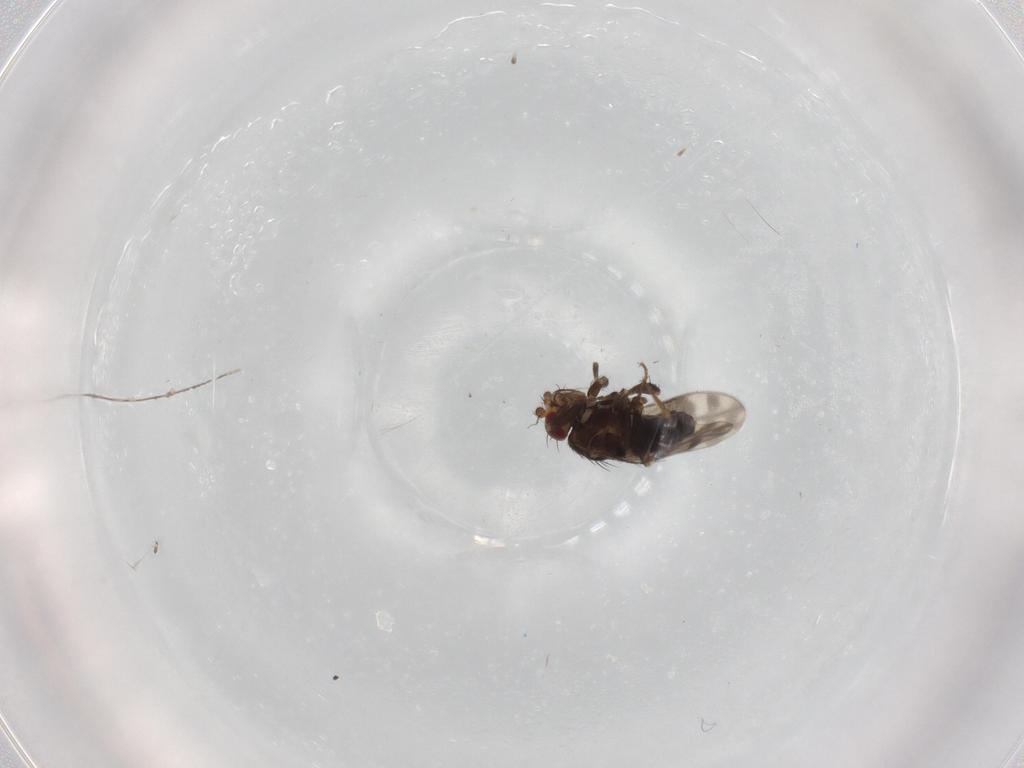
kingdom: Animalia
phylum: Arthropoda
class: Insecta
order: Diptera
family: Sphaeroceridae
